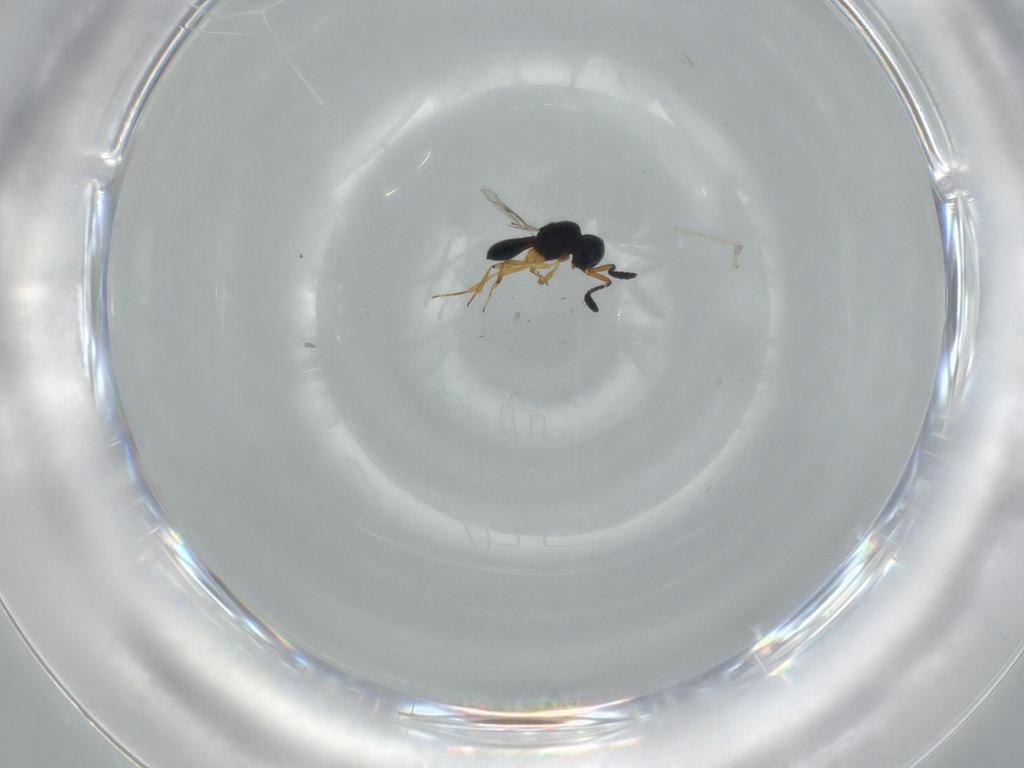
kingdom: Animalia
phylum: Arthropoda
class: Insecta
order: Hymenoptera
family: Scelionidae
